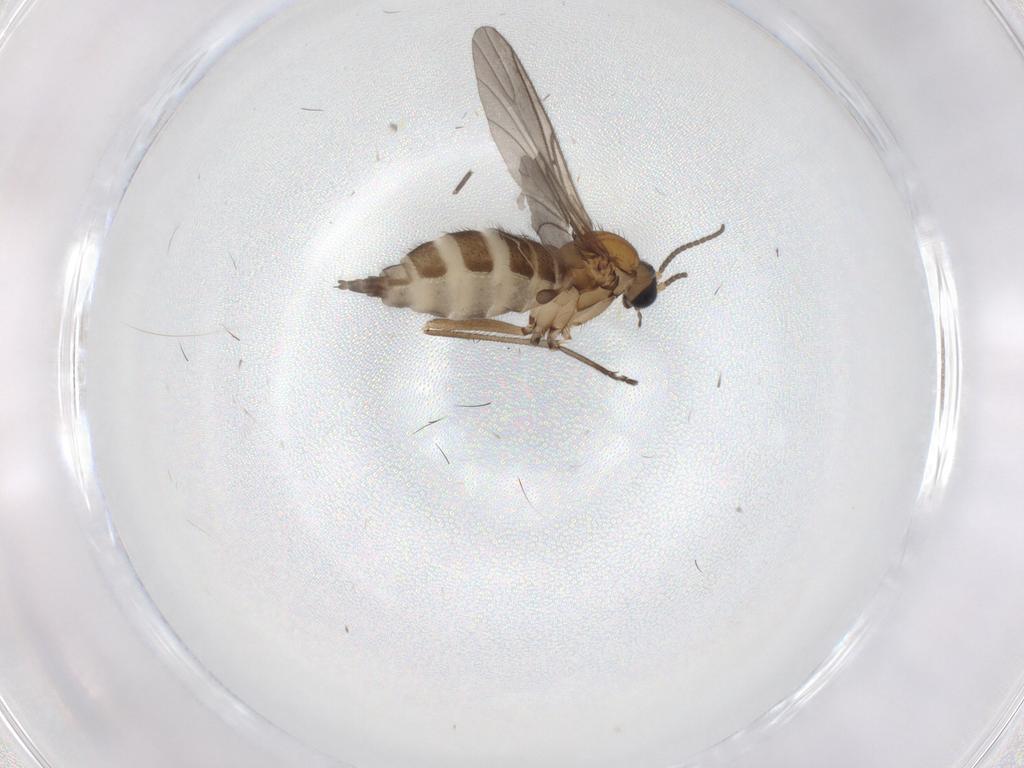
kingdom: Animalia
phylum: Arthropoda
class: Insecta
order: Diptera
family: Sciaridae
